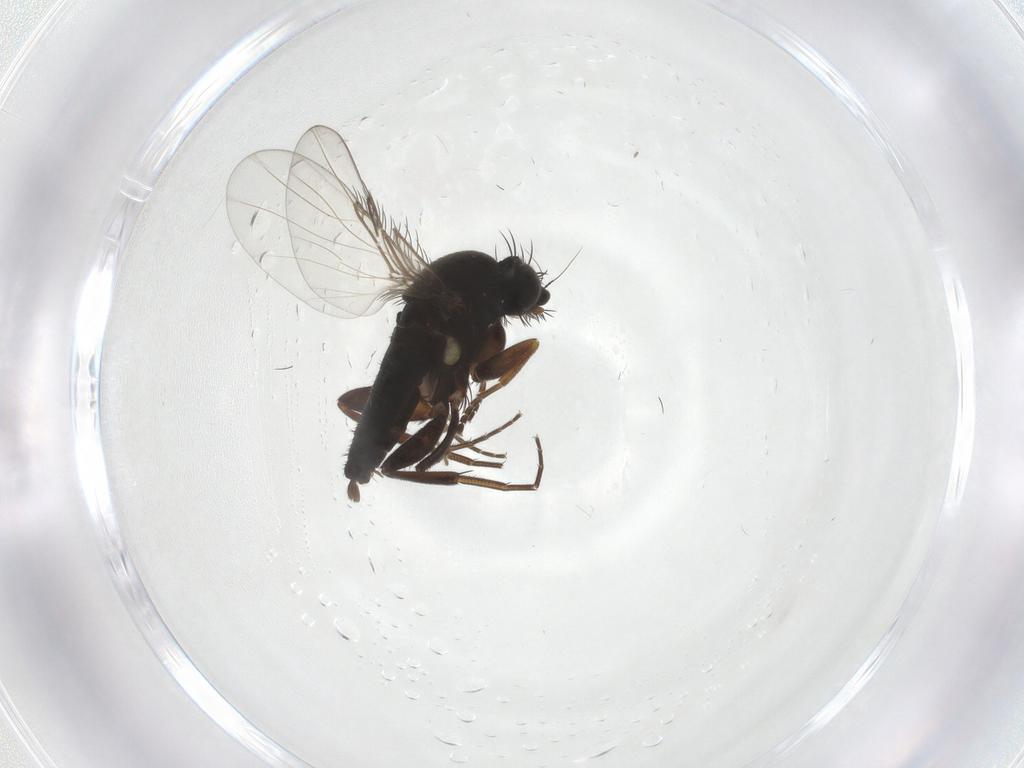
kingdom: Animalia
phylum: Arthropoda
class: Insecta
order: Diptera
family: Phoridae
